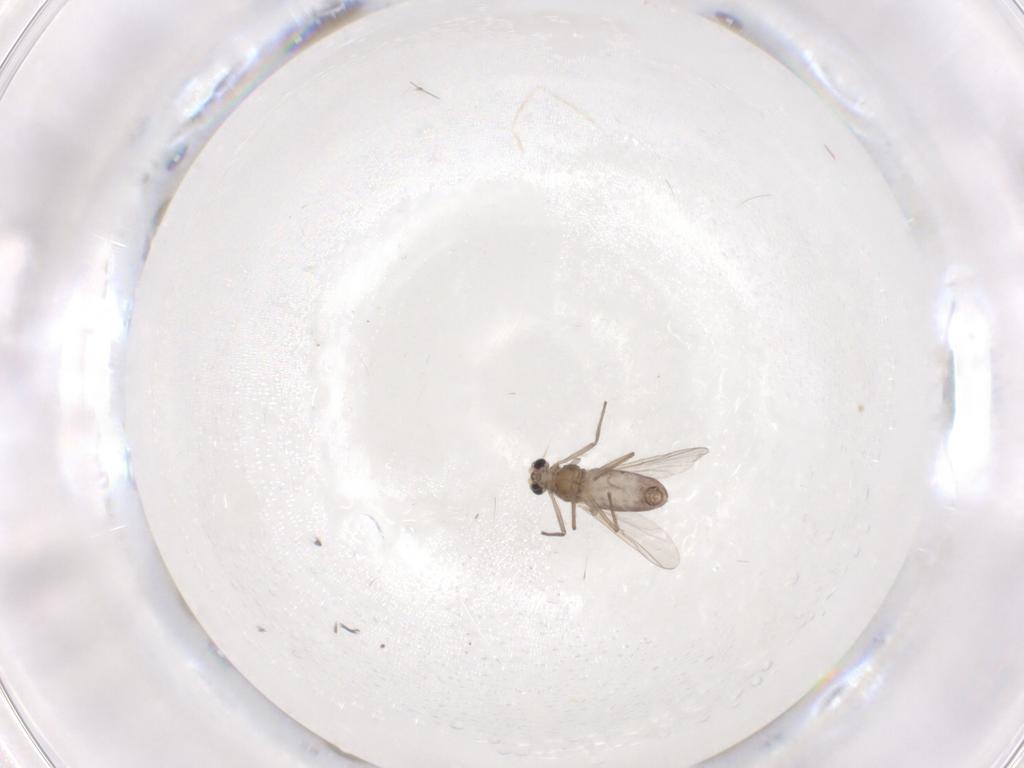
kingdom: Animalia
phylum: Arthropoda
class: Insecta
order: Diptera
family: Chironomidae
